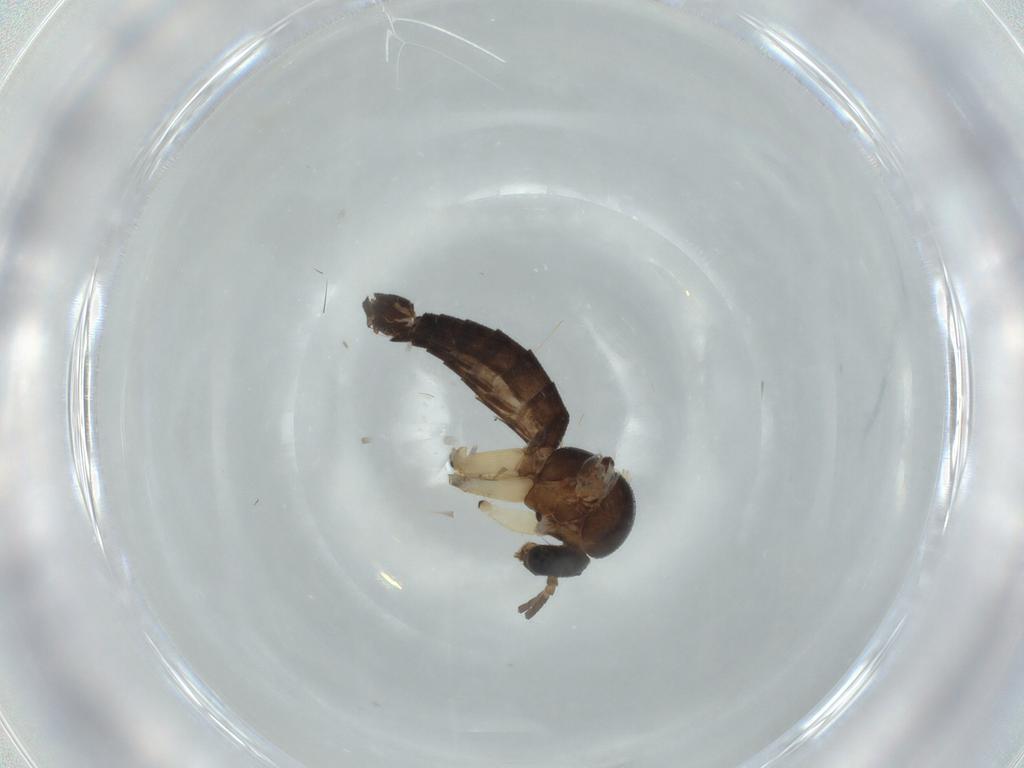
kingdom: Animalia
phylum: Arthropoda
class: Insecta
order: Diptera
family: Mycetophilidae
